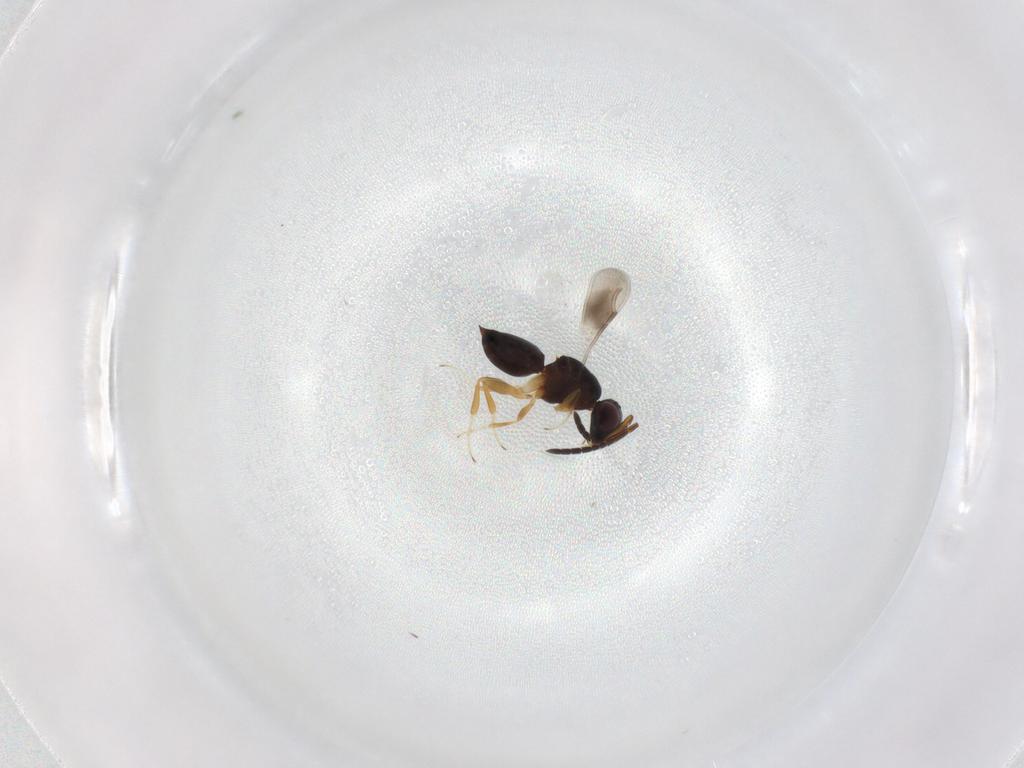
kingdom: Animalia
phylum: Arthropoda
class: Insecta
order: Hymenoptera
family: Ceraphronidae
